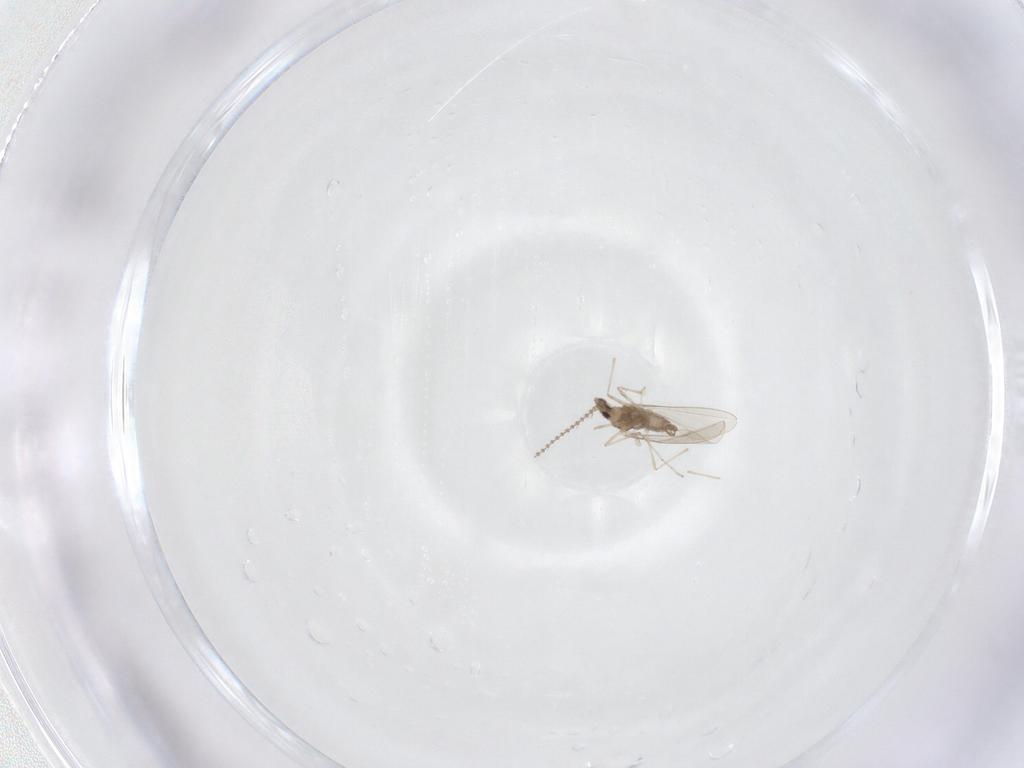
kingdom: Animalia
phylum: Arthropoda
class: Insecta
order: Diptera
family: Cecidomyiidae
